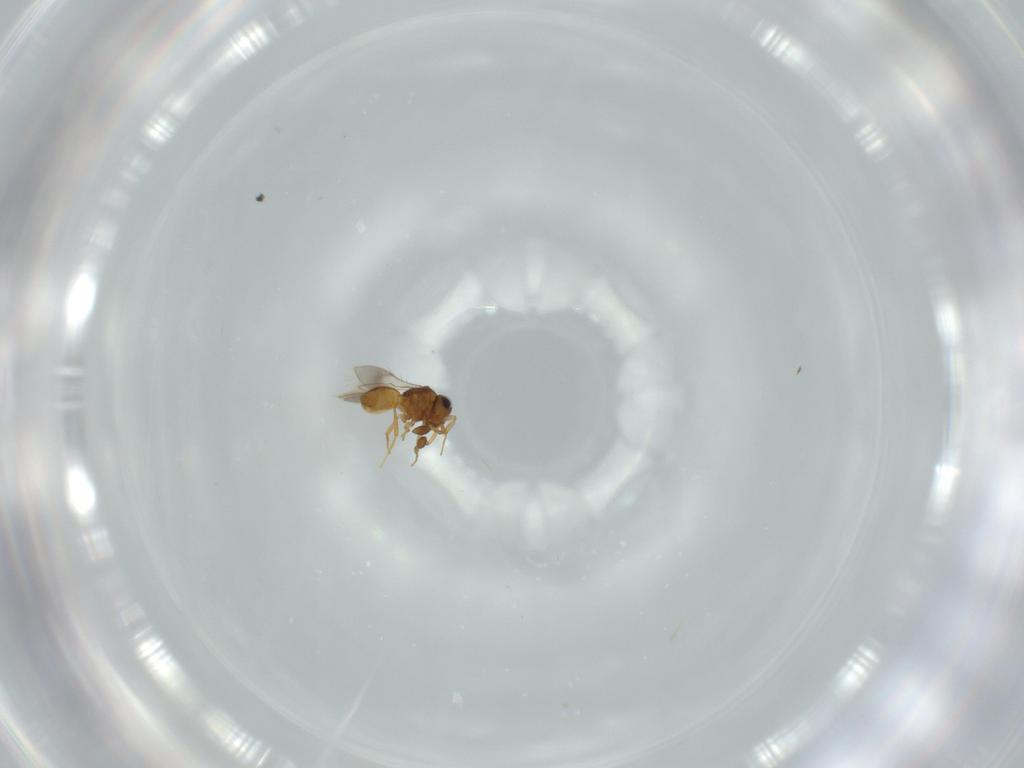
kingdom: Animalia
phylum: Arthropoda
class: Insecta
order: Hymenoptera
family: Scelionidae
